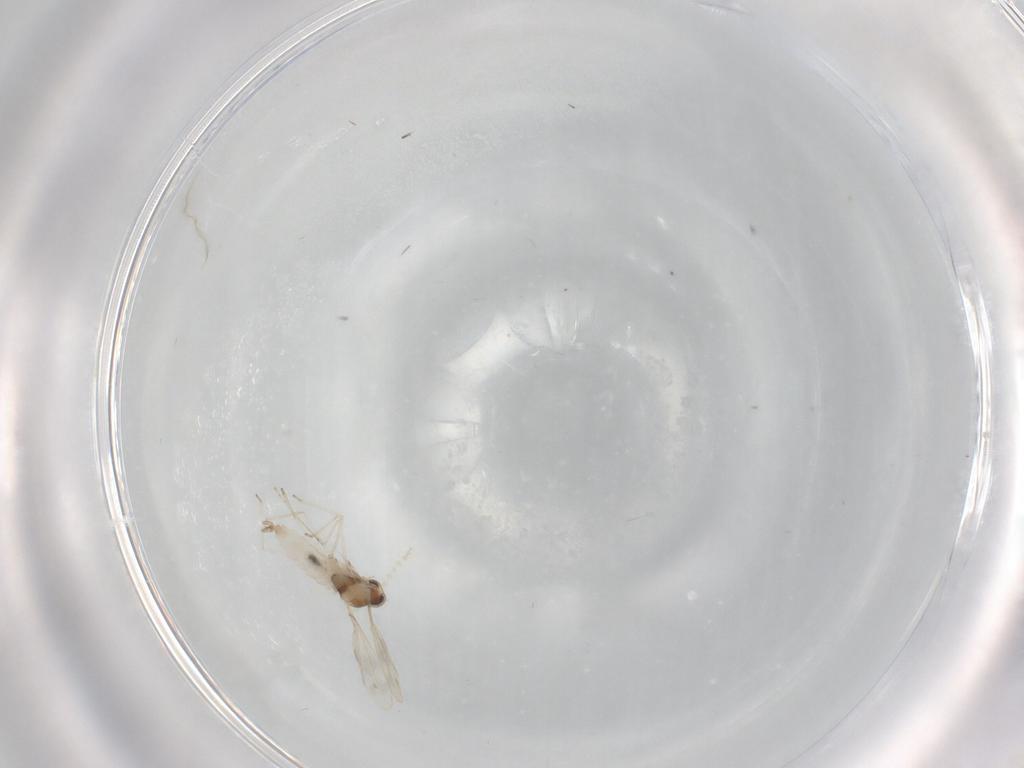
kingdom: Animalia
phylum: Arthropoda
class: Insecta
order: Diptera
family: Cecidomyiidae
